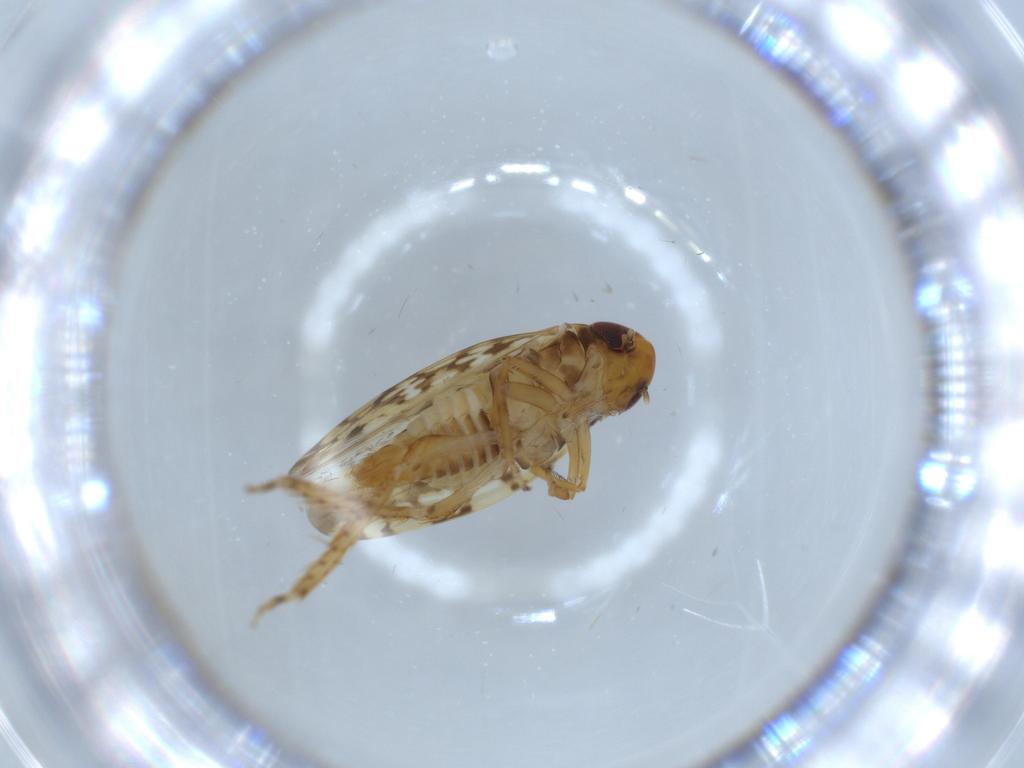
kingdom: Animalia
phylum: Arthropoda
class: Insecta
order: Hemiptera
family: Cicadellidae
